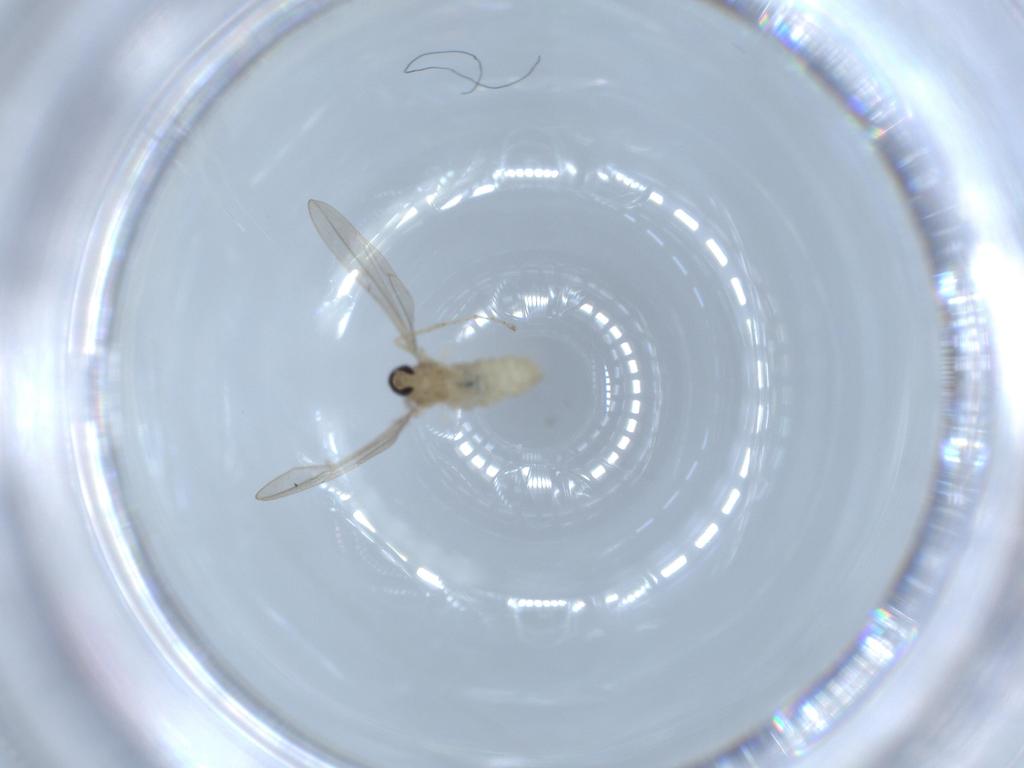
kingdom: Animalia
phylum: Arthropoda
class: Insecta
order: Diptera
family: Cecidomyiidae
